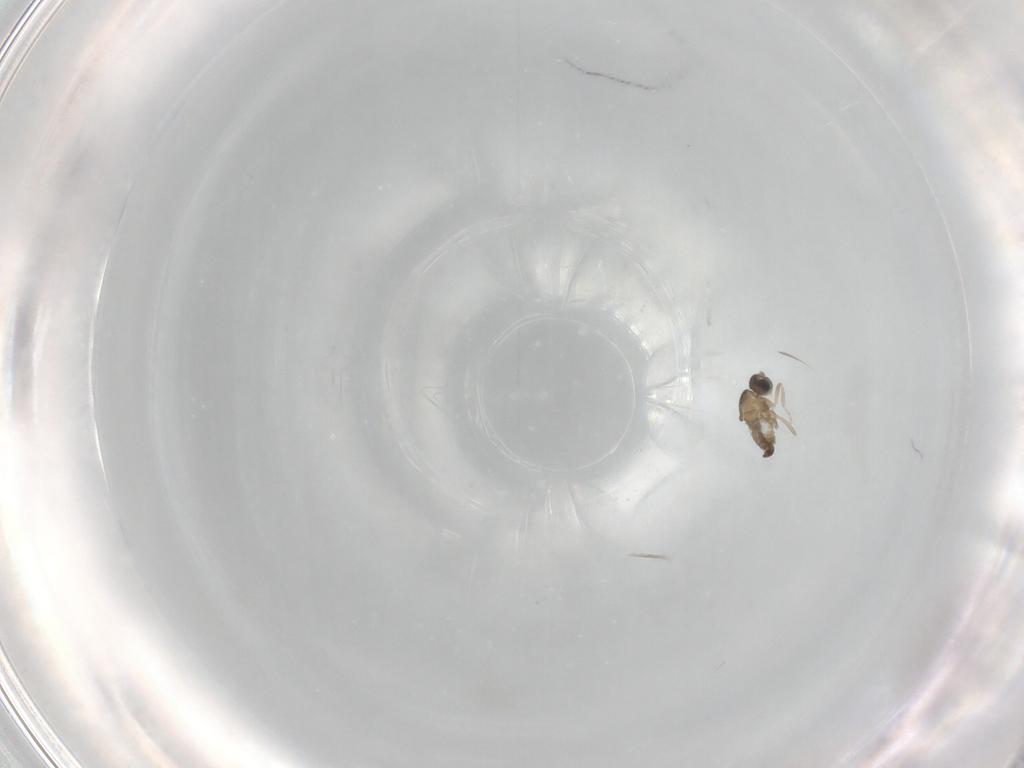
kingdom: Animalia
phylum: Arthropoda
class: Insecta
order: Diptera
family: Cecidomyiidae
